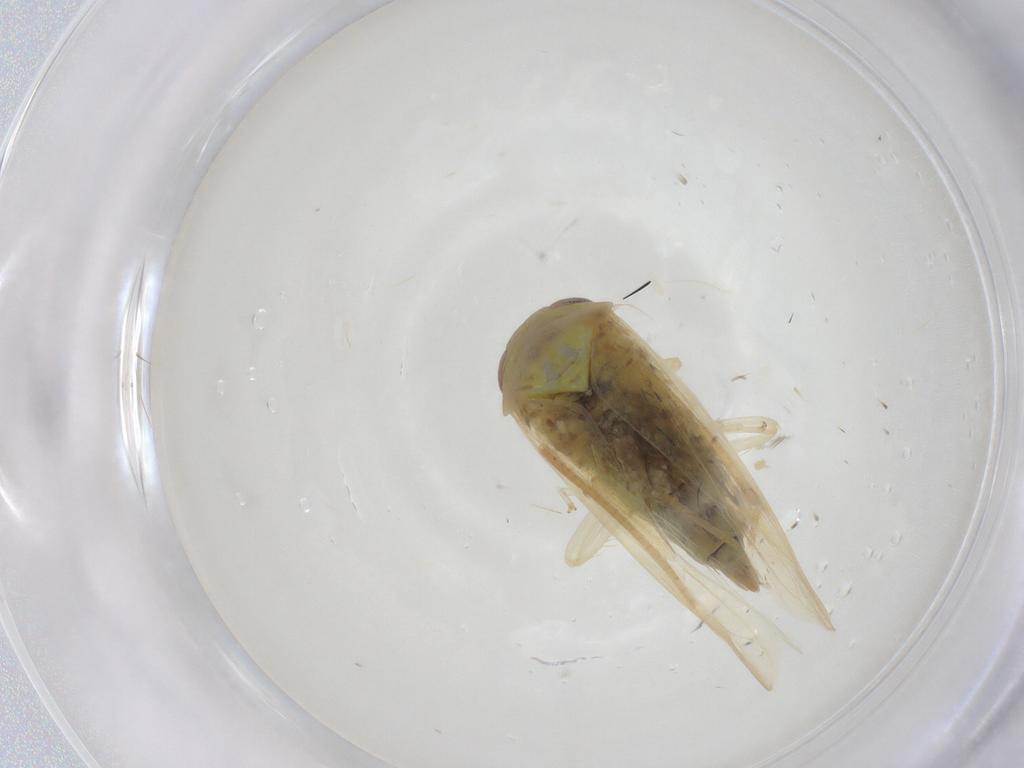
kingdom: Animalia
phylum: Arthropoda
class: Insecta
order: Hemiptera
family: Cicadellidae
